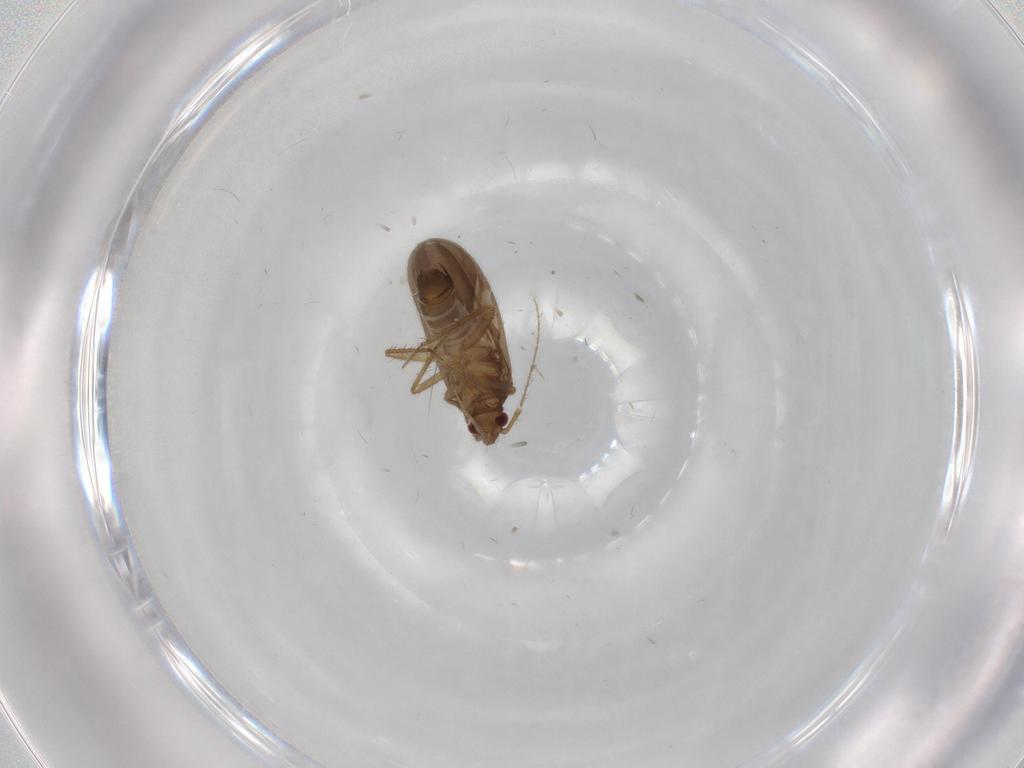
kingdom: Animalia
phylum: Arthropoda
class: Insecta
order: Hemiptera
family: Ceratocombidae
